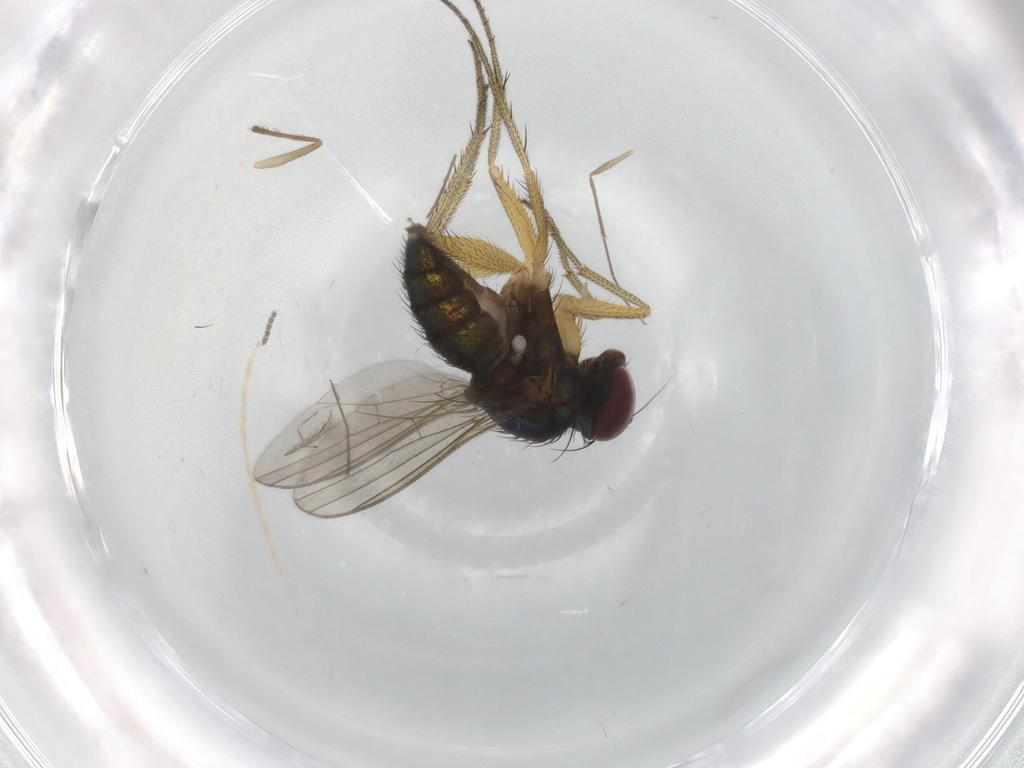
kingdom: Animalia
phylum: Arthropoda
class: Insecta
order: Diptera
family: Dolichopodidae
